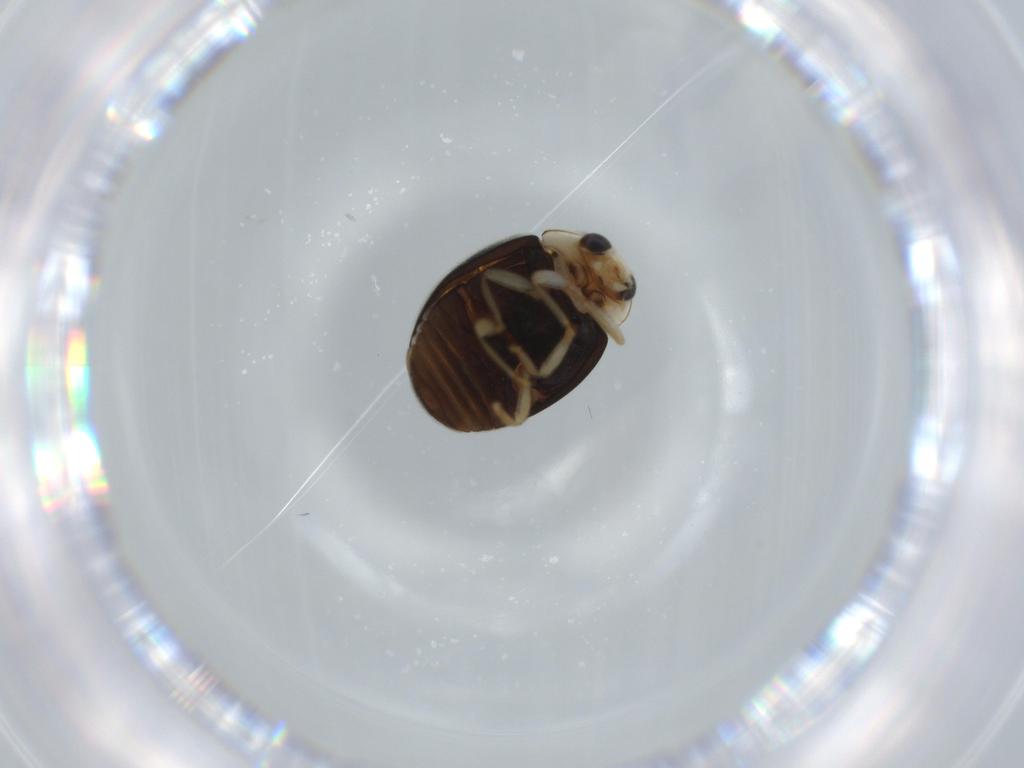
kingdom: Animalia
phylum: Arthropoda
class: Insecta
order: Coleoptera
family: Coccinellidae
